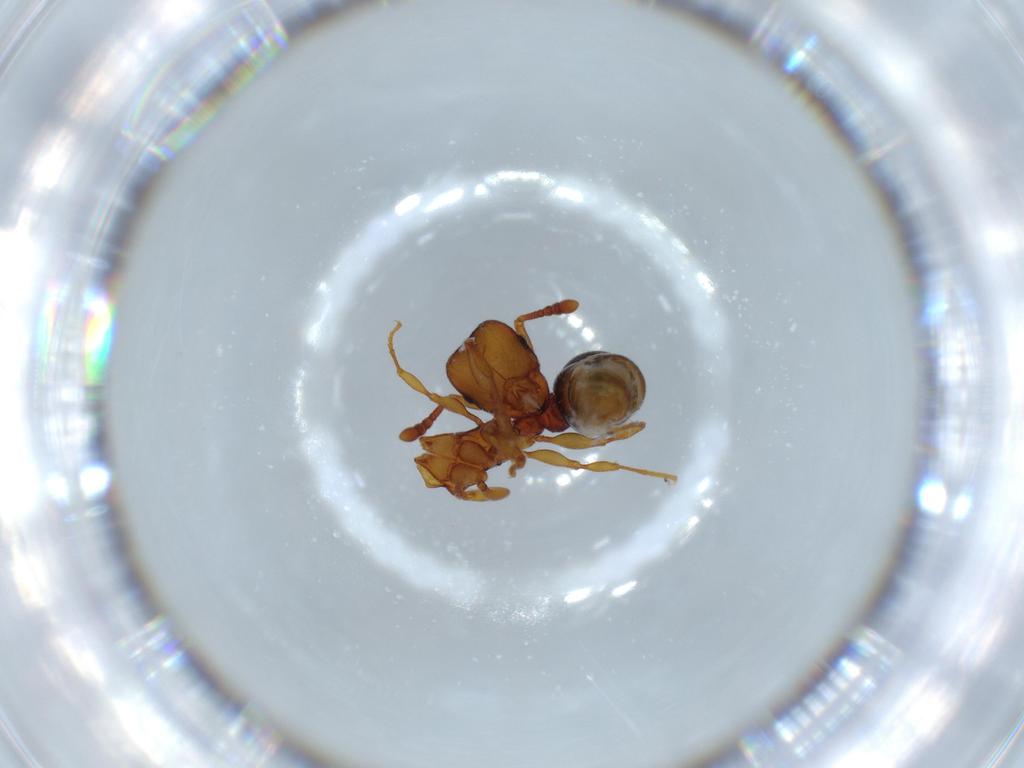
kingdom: Animalia
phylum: Arthropoda
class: Insecta
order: Hymenoptera
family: Formicidae
